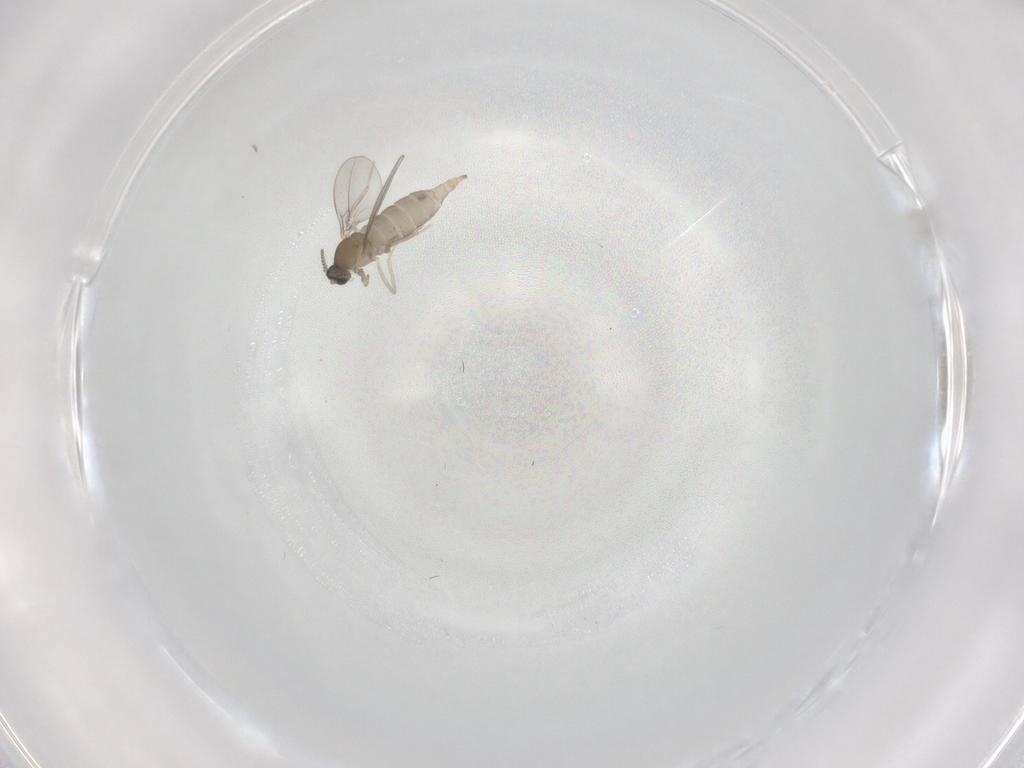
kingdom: Animalia
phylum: Arthropoda
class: Insecta
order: Diptera
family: Cecidomyiidae
